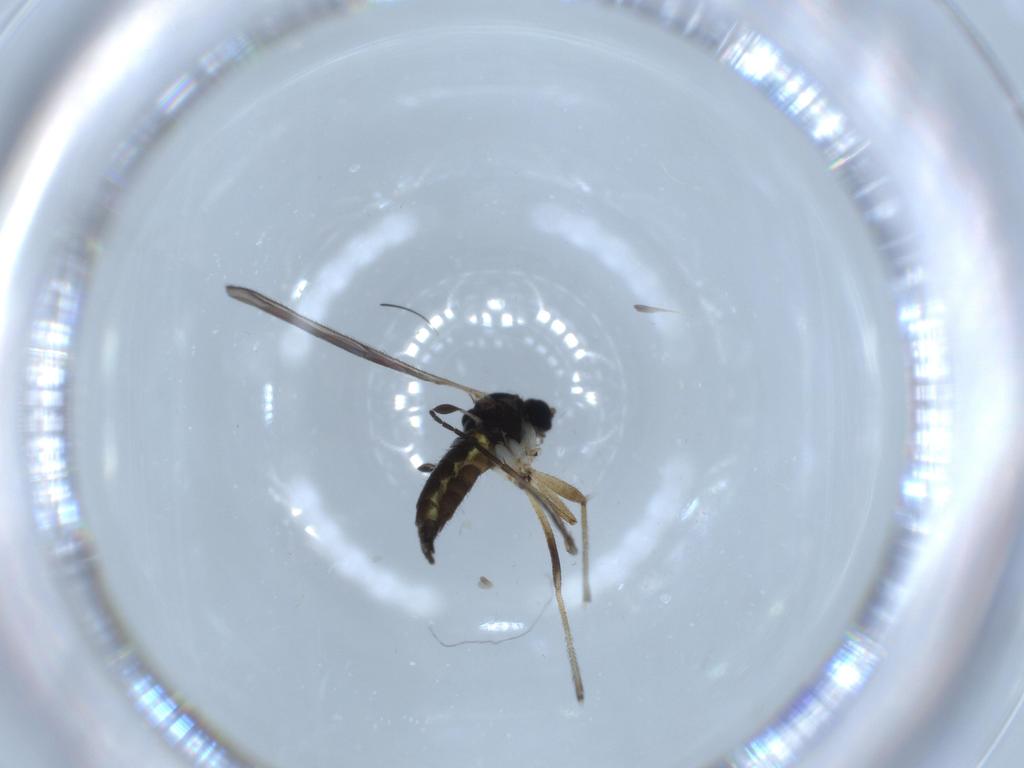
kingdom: Animalia
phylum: Arthropoda
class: Insecta
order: Diptera
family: Sciaridae
